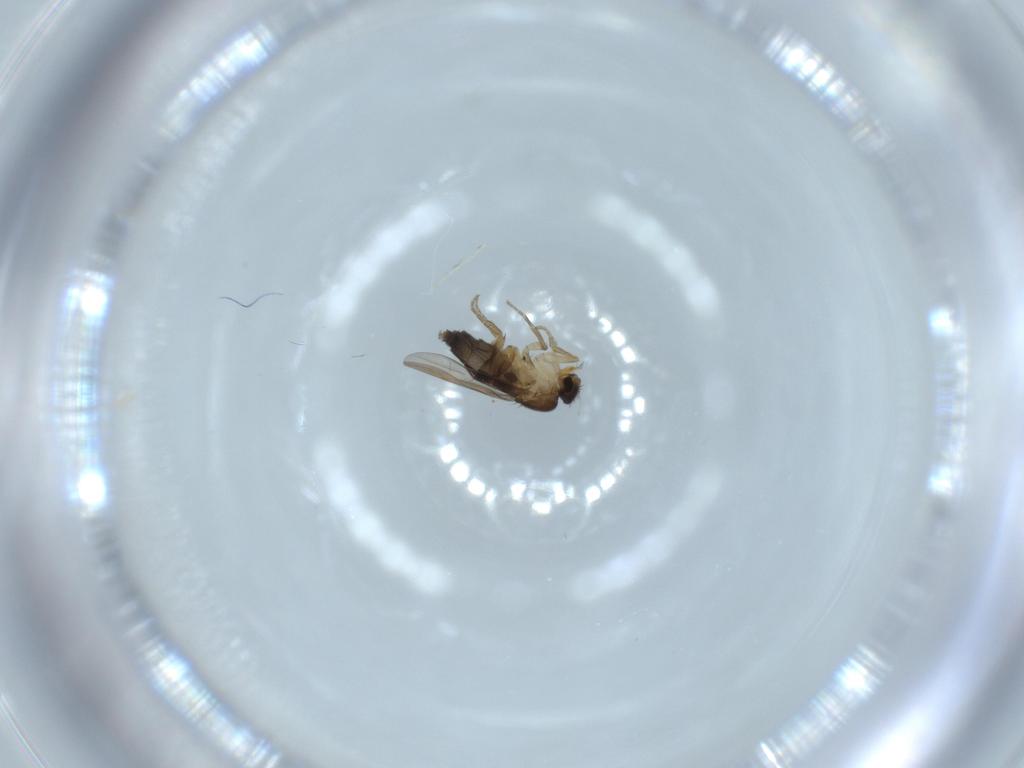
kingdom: Animalia
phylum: Arthropoda
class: Insecta
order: Diptera
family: Phoridae
